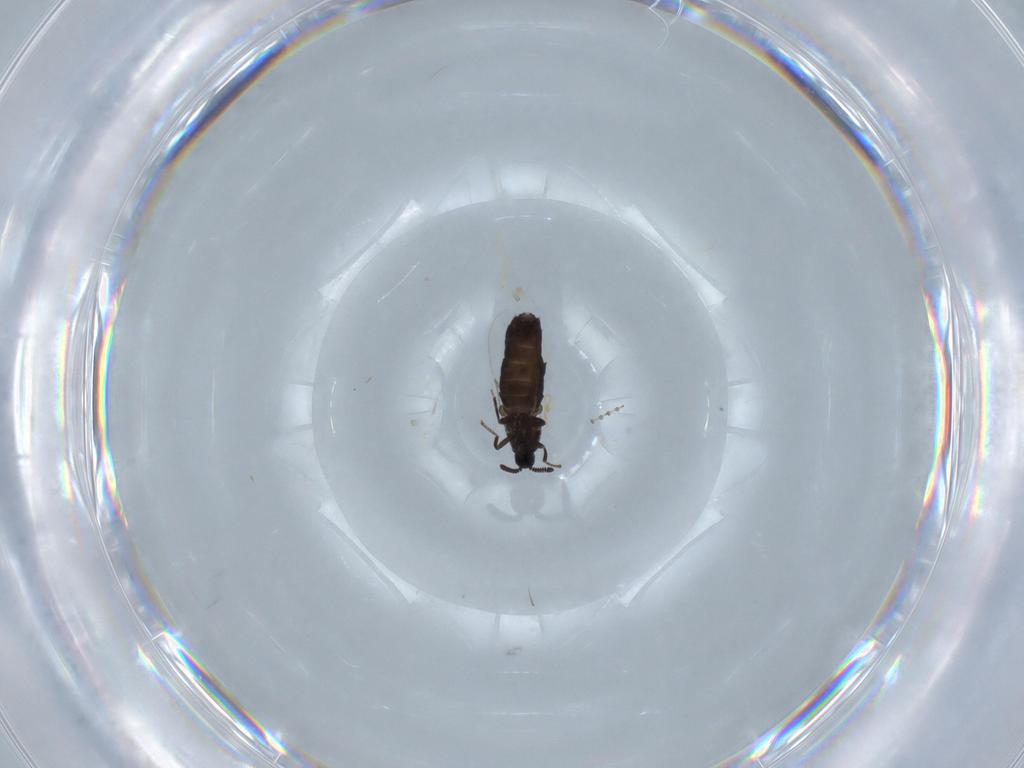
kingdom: Animalia
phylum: Arthropoda
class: Insecta
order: Diptera
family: Scatopsidae
